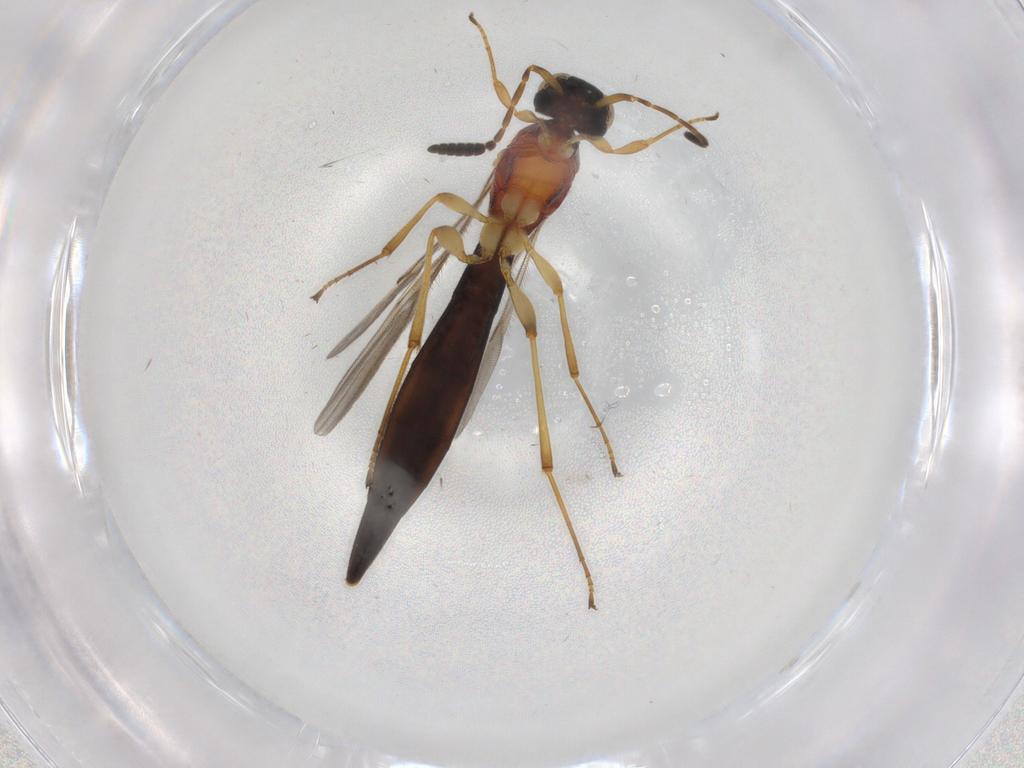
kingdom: Animalia
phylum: Arthropoda
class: Insecta
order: Hymenoptera
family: Scelionidae
